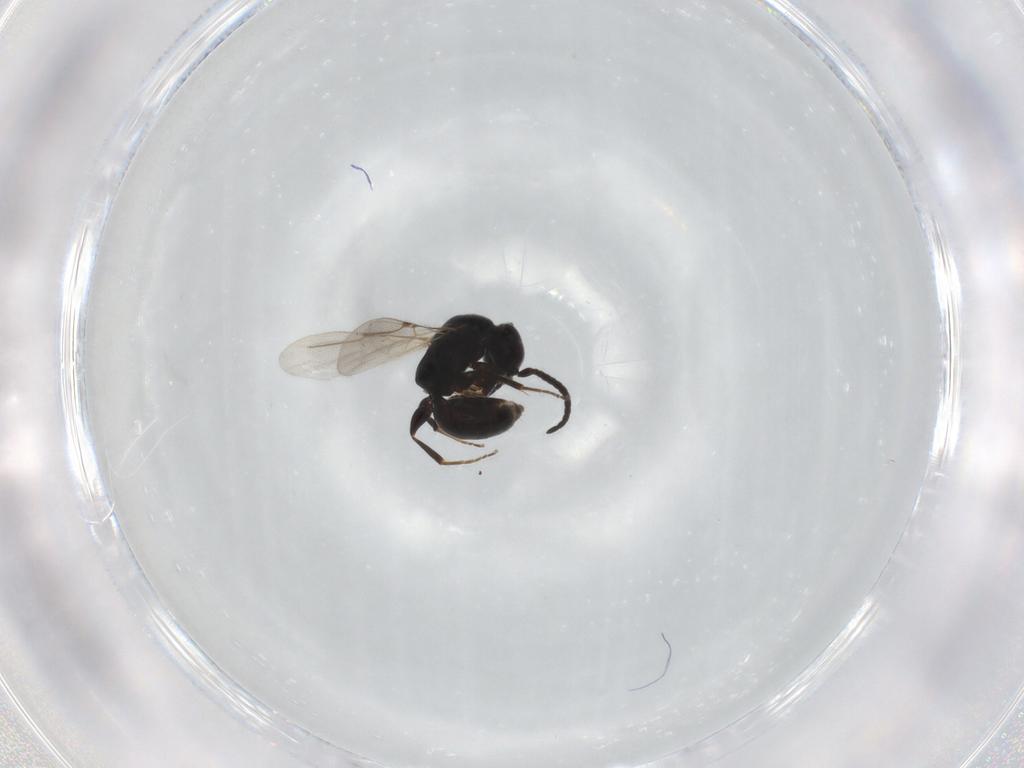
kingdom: Animalia
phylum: Arthropoda
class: Insecta
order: Hymenoptera
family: Bethylidae
